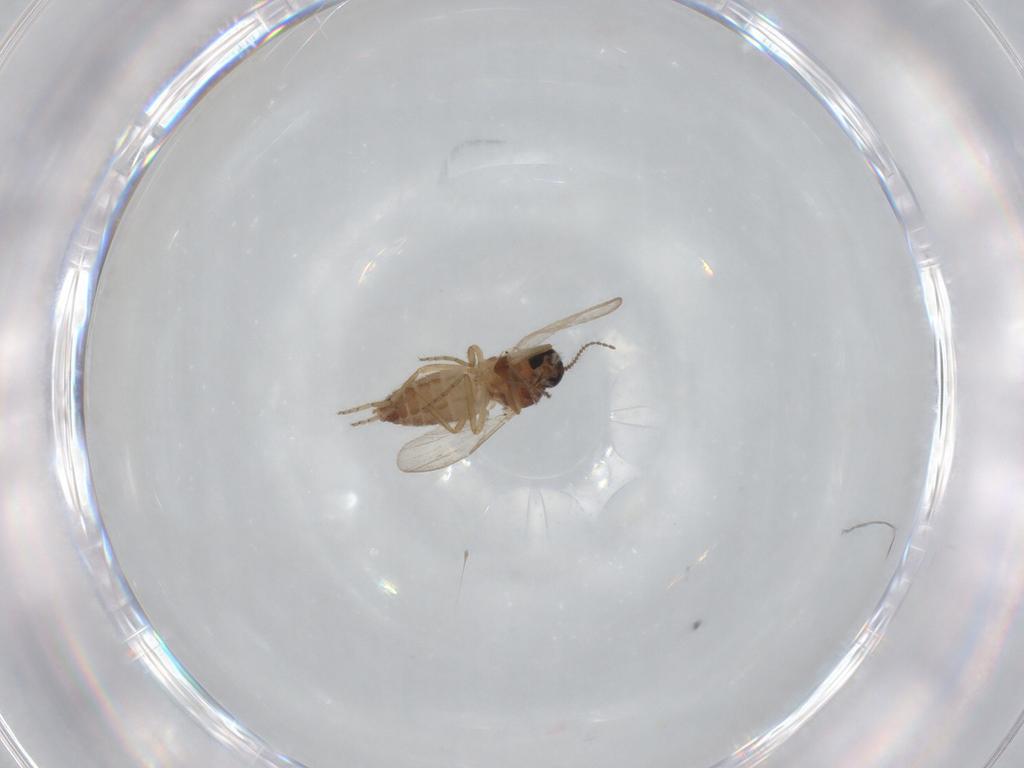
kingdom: Animalia
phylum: Arthropoda
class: Insecta
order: Diptera
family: Ceratopogonidae
